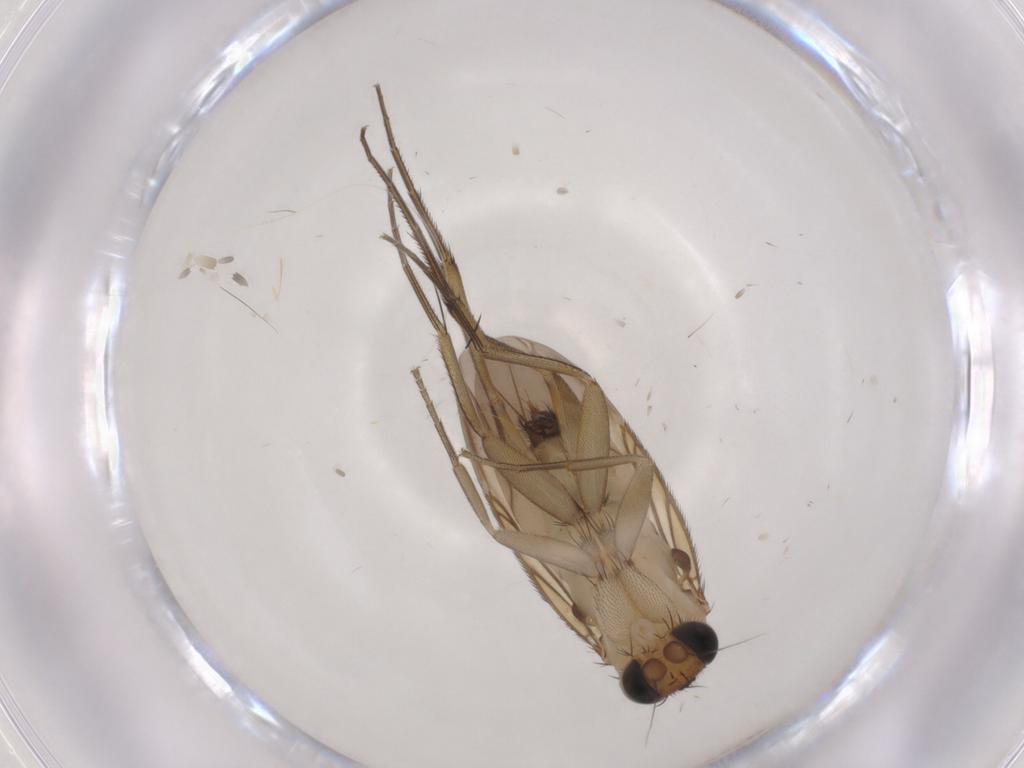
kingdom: Animalia
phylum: Arthropoda
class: Insecta
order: Diptera
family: Phoridae
